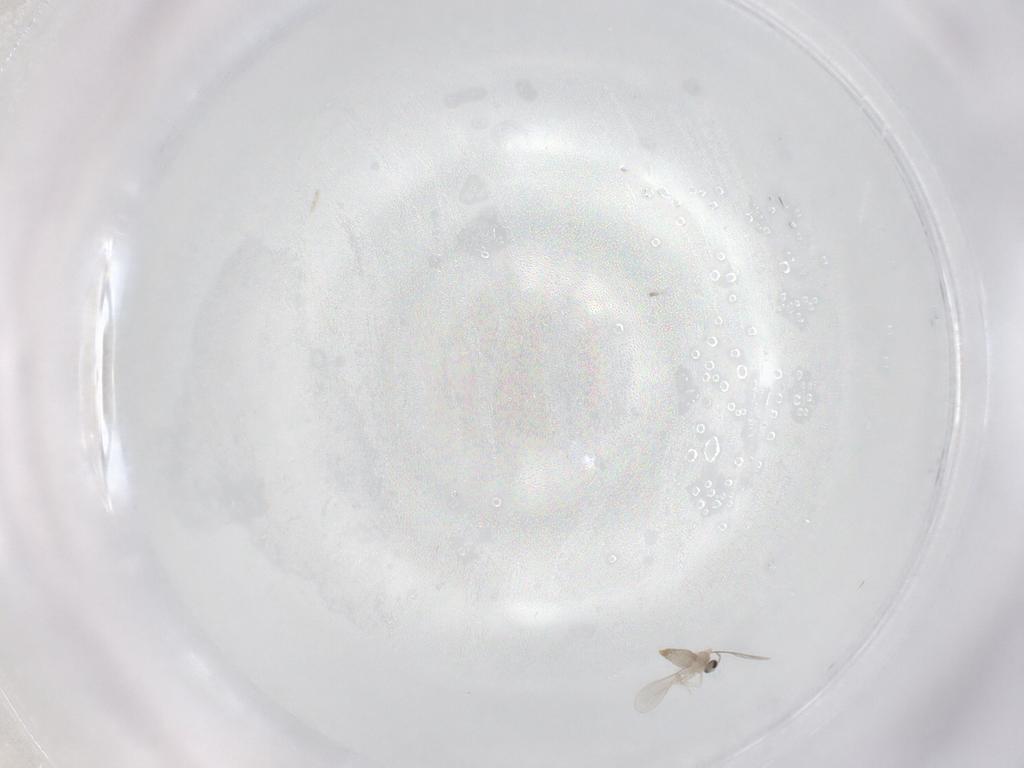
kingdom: Animalia
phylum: Arthropoda
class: Insecta
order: Diptera
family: Cecidomyiidae
